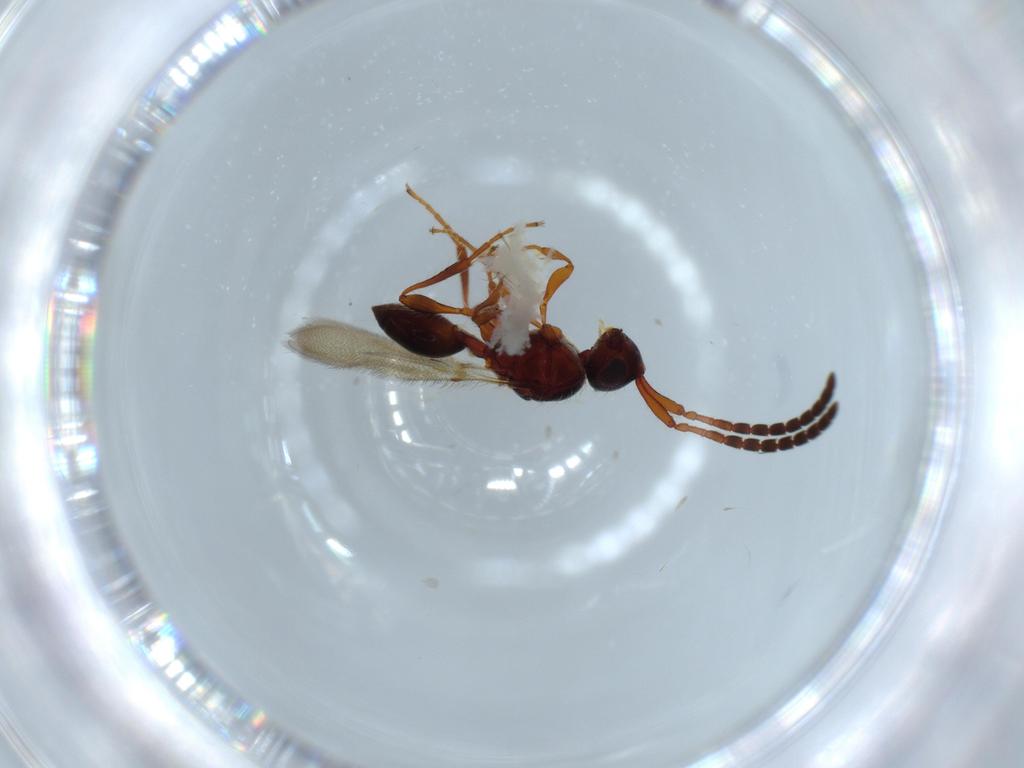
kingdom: Animalia
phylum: Arthropoda
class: Insecta
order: Hymenoptera
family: Diapriidae
